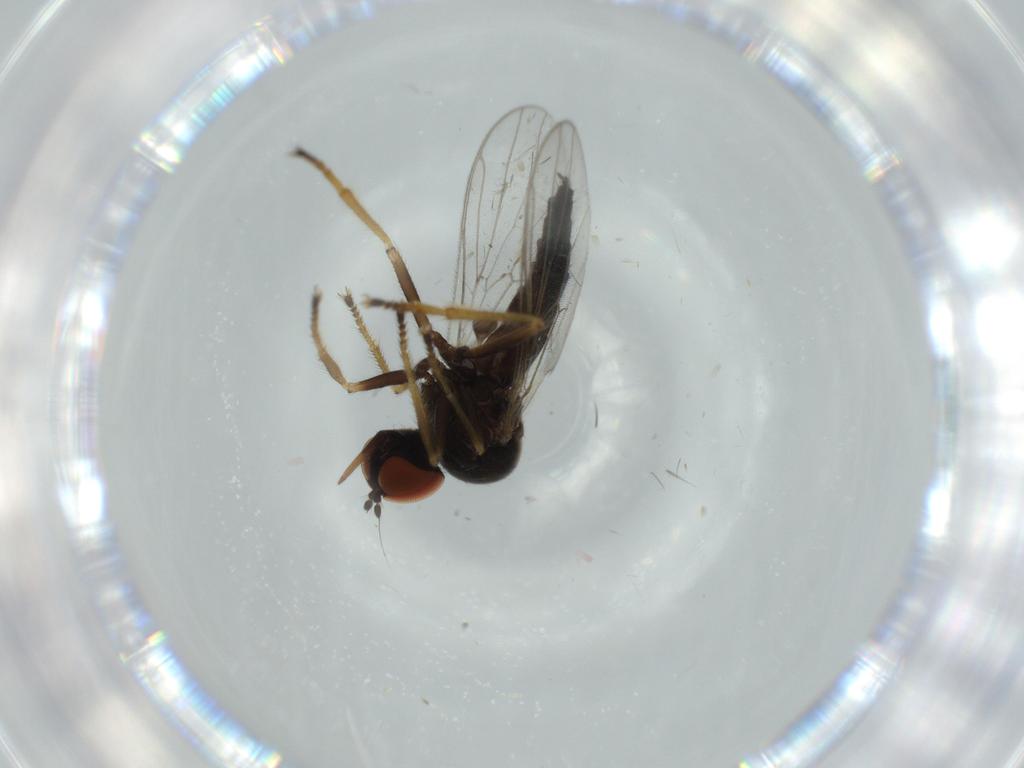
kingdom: Animalia
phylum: Arthropoda
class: Insecta
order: Diptera
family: Cecidomyiidae
